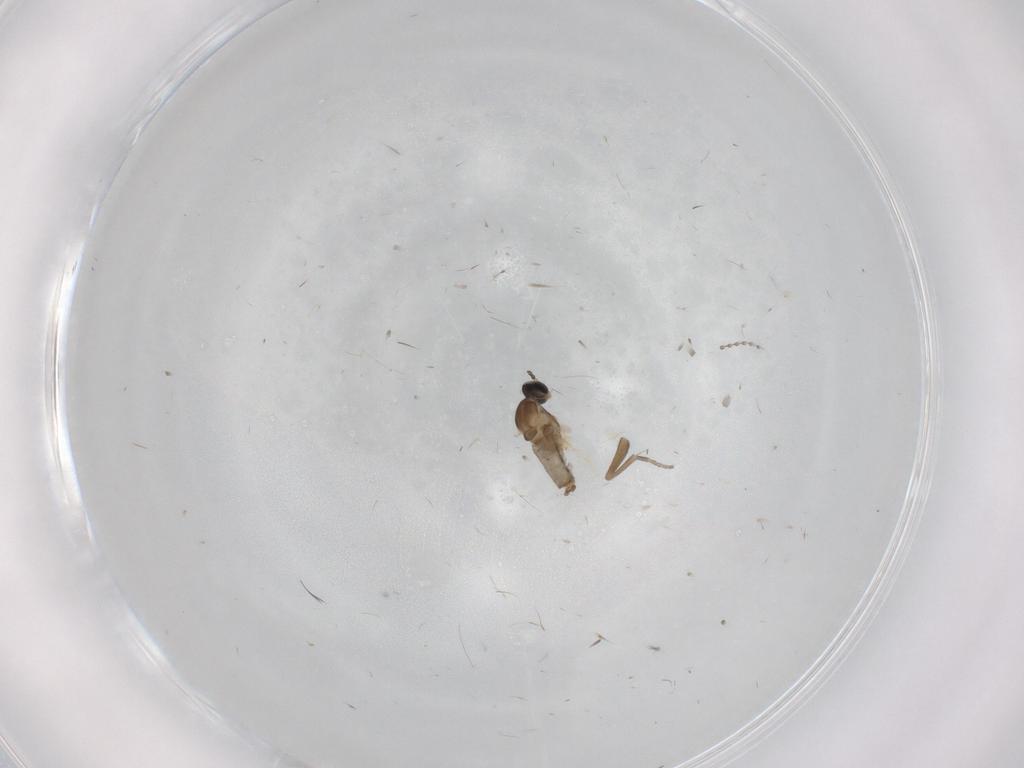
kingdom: Animalia
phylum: Arthropoda
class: Insecta
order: Diptera
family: Cecidomyiidae
